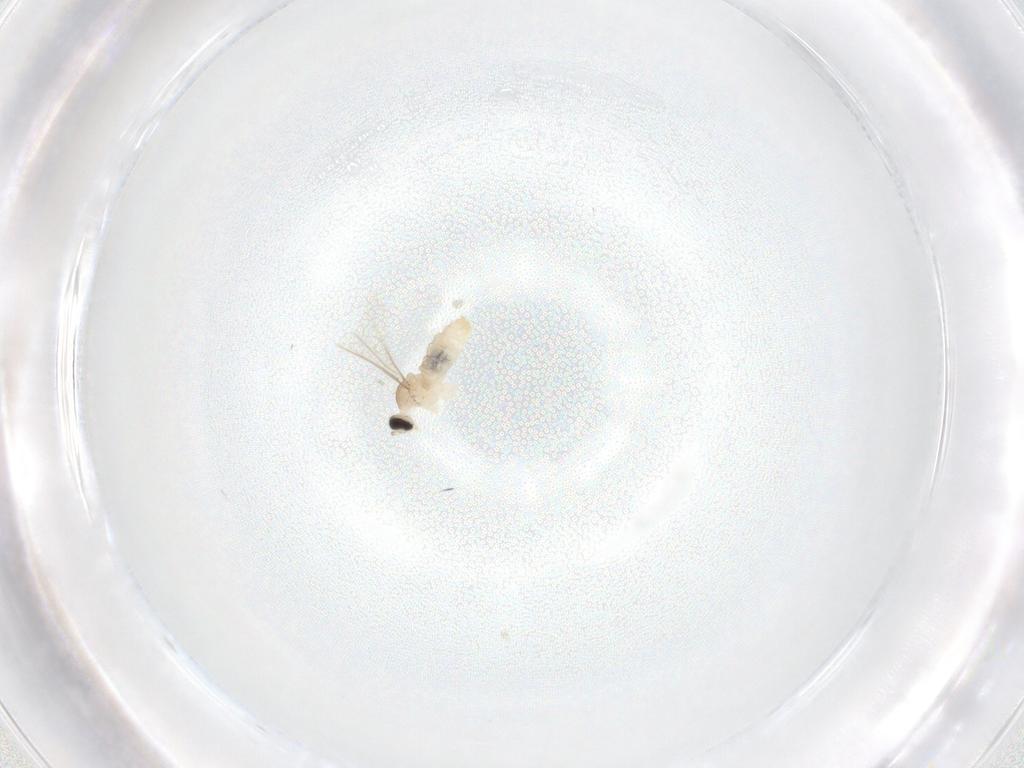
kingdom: Animalia
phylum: Arthropoda
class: Insecta
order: Diptera
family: Cecidomyiidae
